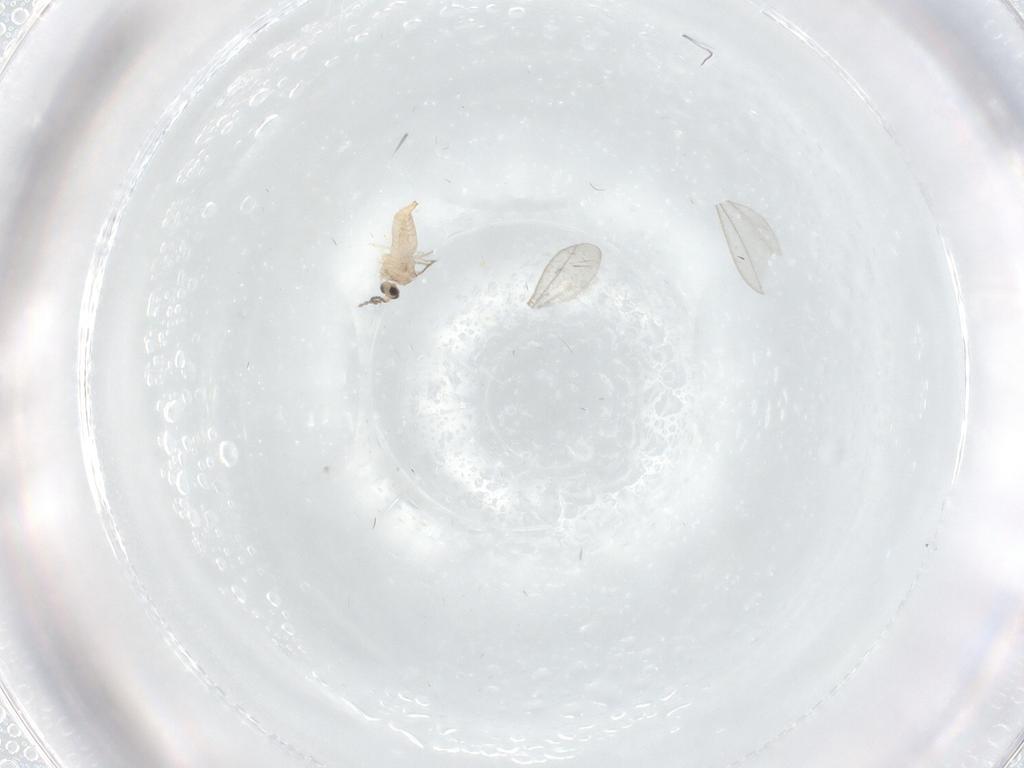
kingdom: Animalia
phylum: Arthropoda
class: Insecta
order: Diptera
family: Cecidomyiidae
